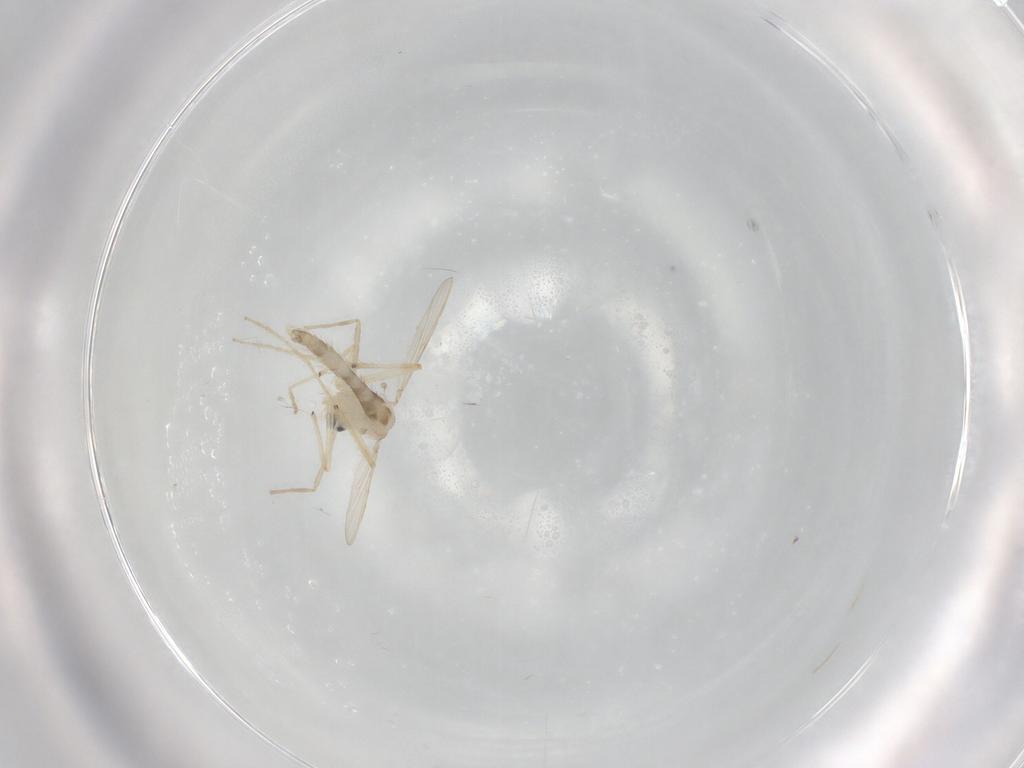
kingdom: Animalia
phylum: Arthropoda
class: Insecta
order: Diptera
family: Chironomidae
